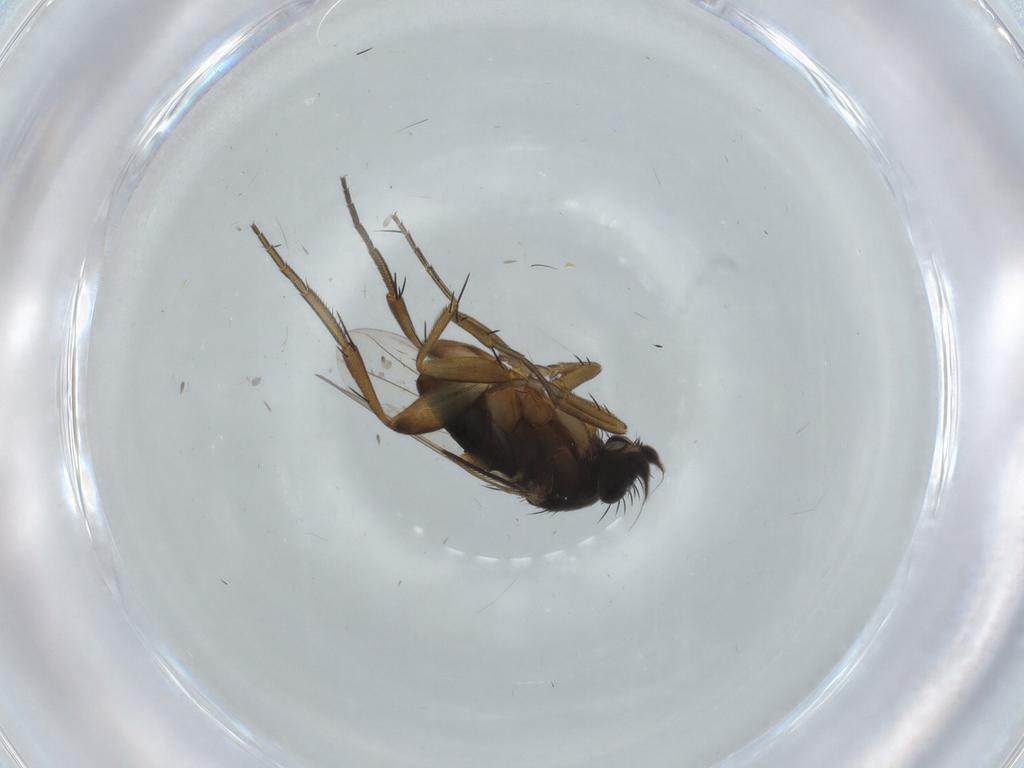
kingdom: Animalia
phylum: Arthropoda
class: Insecta
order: Diptera
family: Phoridae
